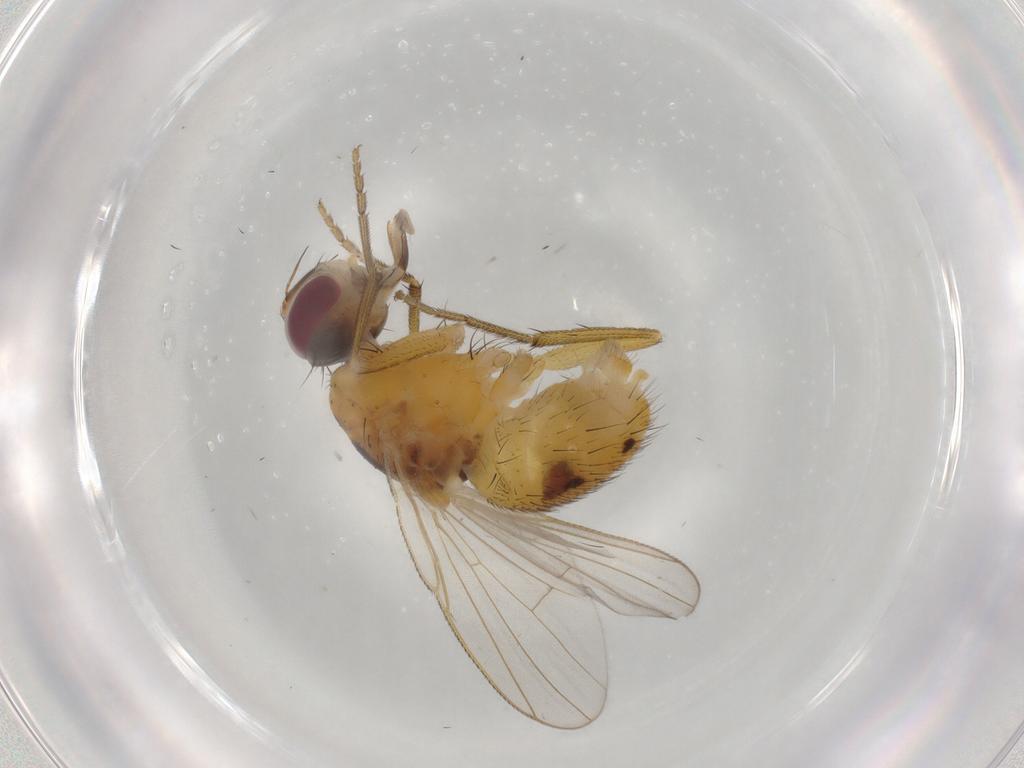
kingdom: Animalia
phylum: Arthropoda
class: Insecta
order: Diptera
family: Muscidae
